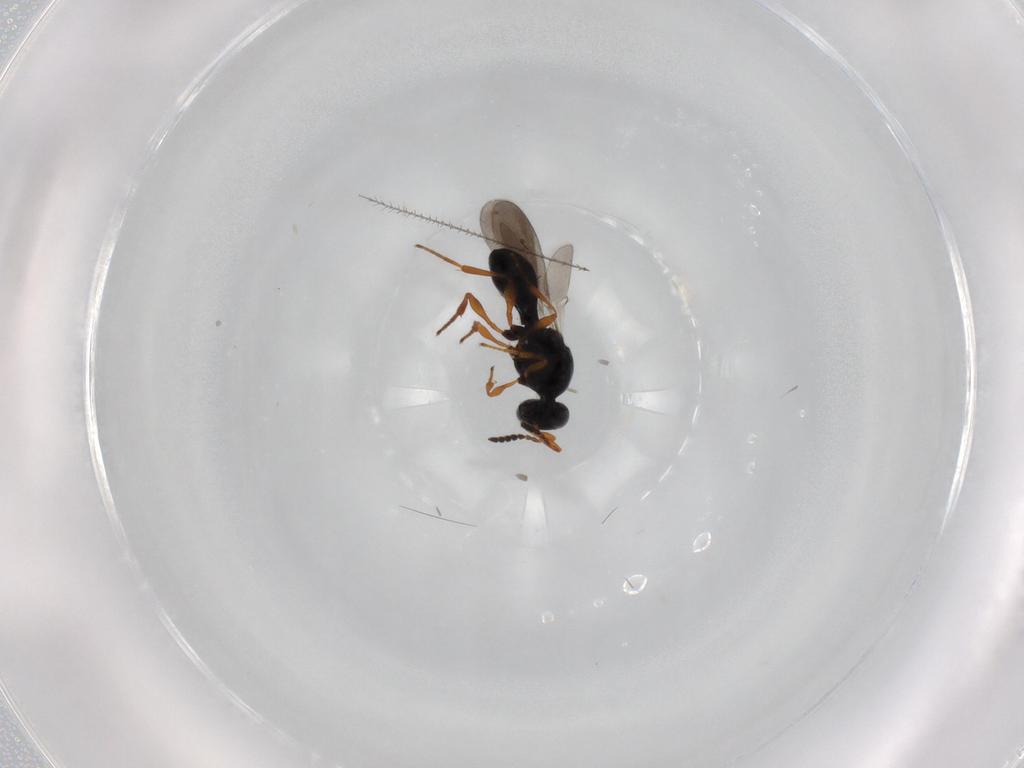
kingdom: Animalia
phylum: Arthropoda
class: Insecta
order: Hymenoptera
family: Platygastridae
